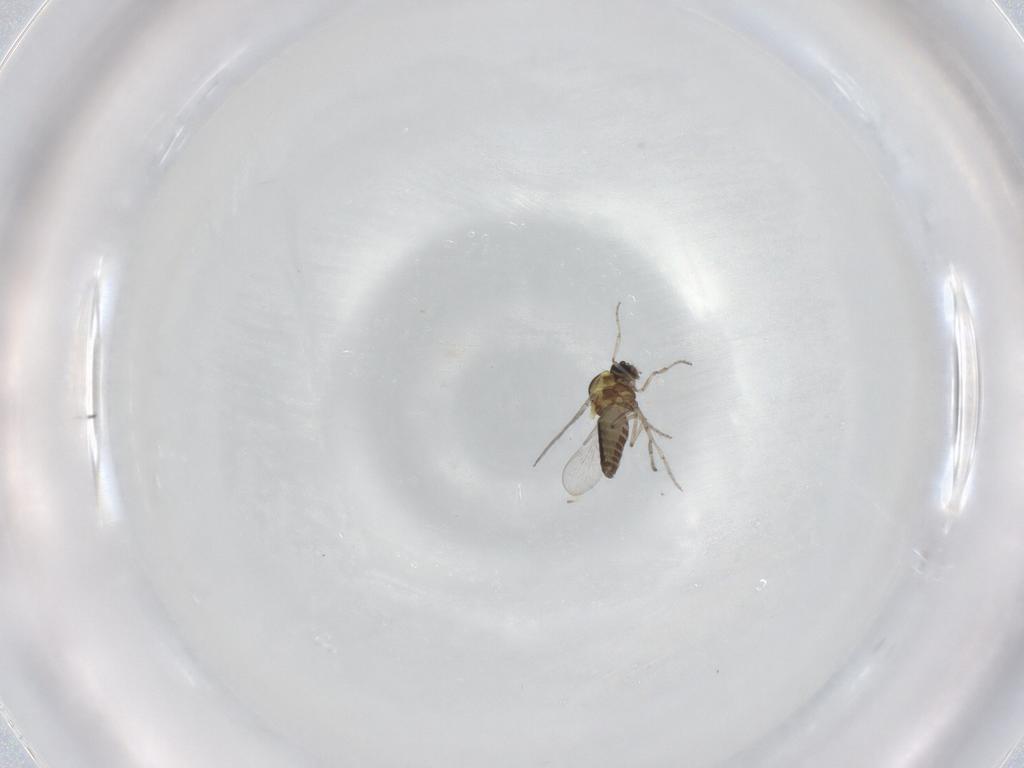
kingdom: Animalia
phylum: Arthropoda
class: Insecta
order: Diptera
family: Ceratopogonidae
